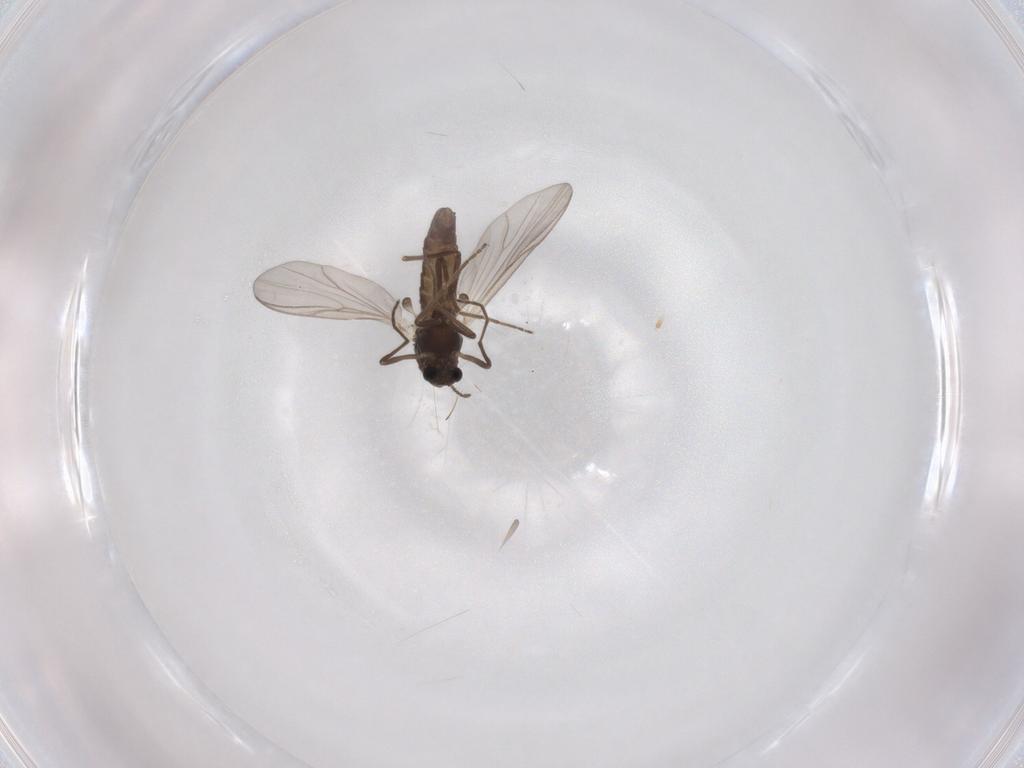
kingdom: Animalia
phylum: Arthropoda
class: Insecta
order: Diptera
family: Chironomidae
